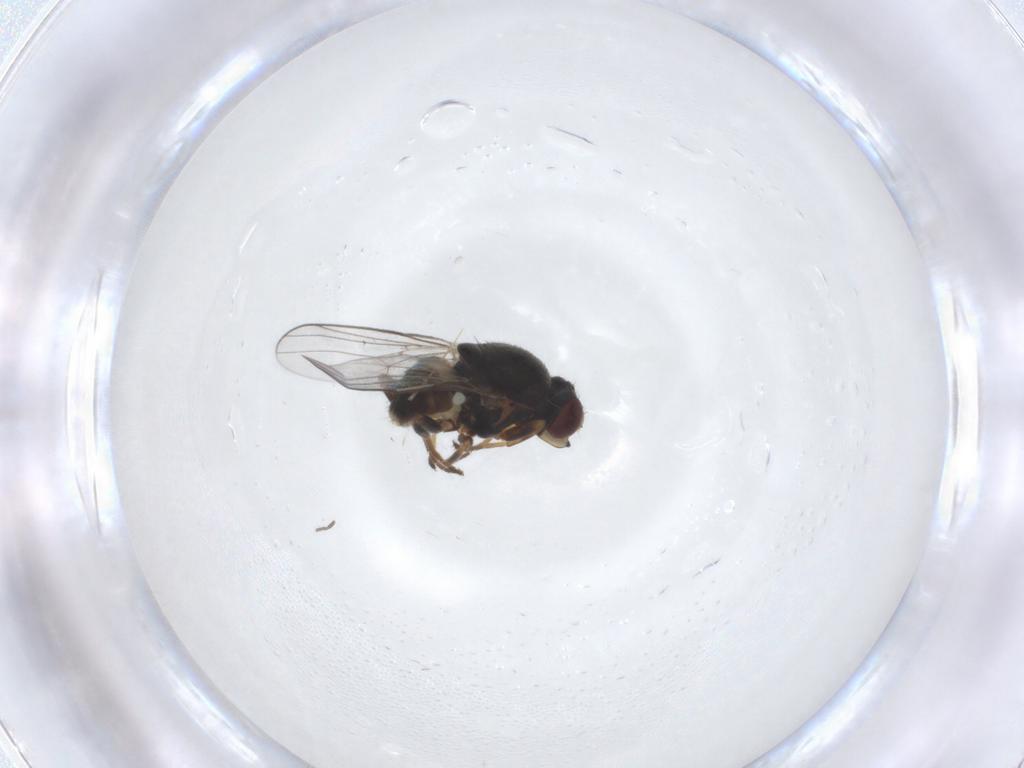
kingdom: Animalia
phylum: Arthropoda
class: Insecta
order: Diptera
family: Chloropidae
